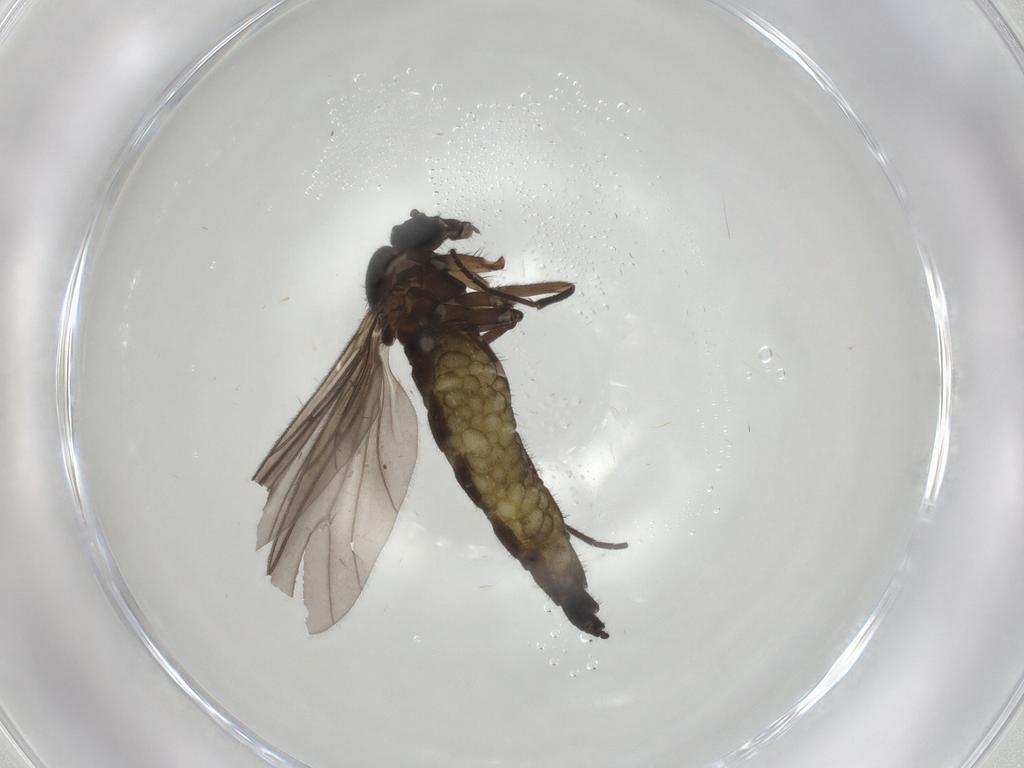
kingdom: Animalia
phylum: Arthropoda
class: Insecta
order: Diptera
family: Sciaridae
